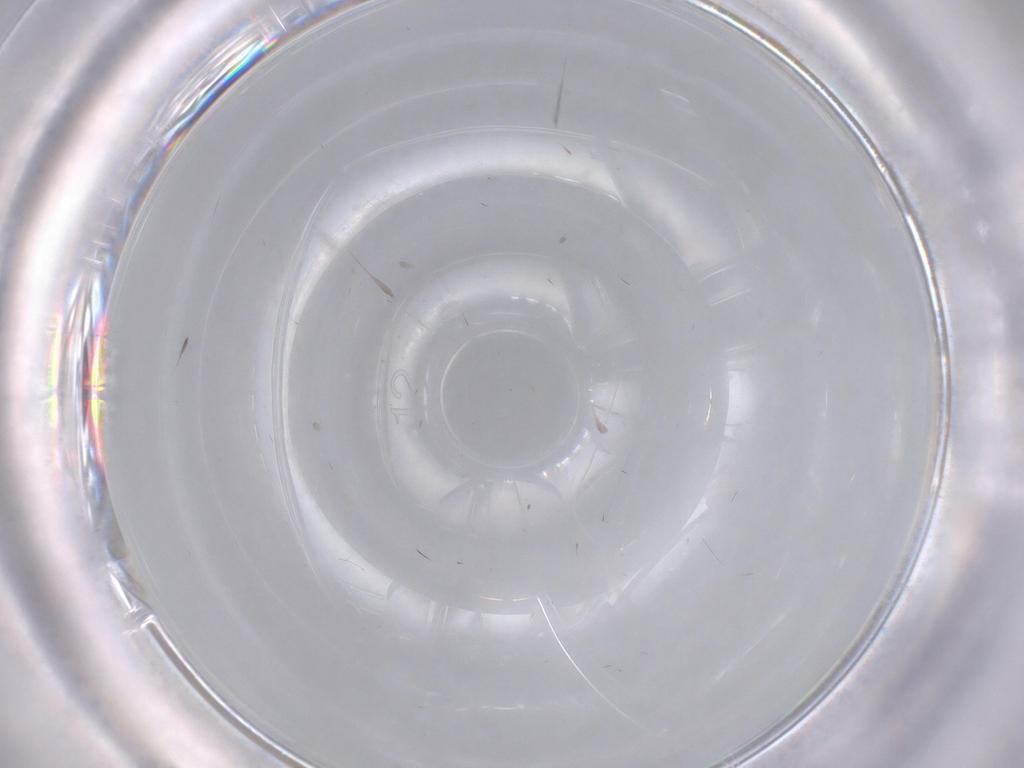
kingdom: Animalia
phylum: Arthropoda
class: Insecta
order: Diptera
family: Cecidomyiidae
